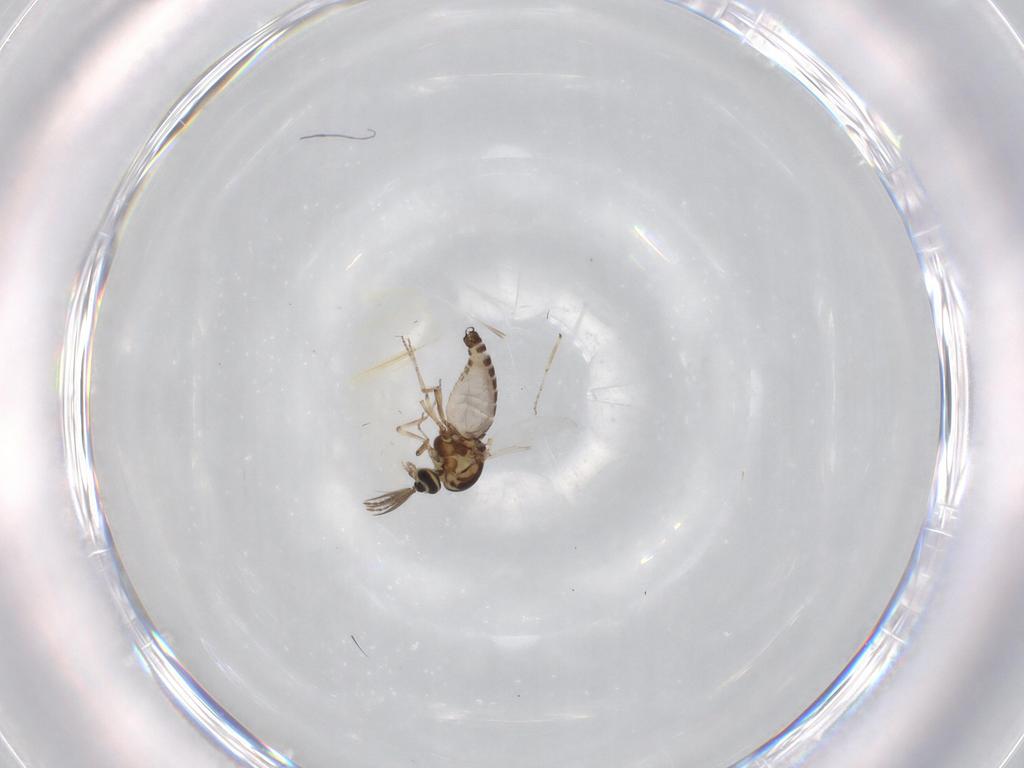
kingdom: Animalia
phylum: Arthropoda
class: Insecta
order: Diptera
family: Ceratopogonidae
